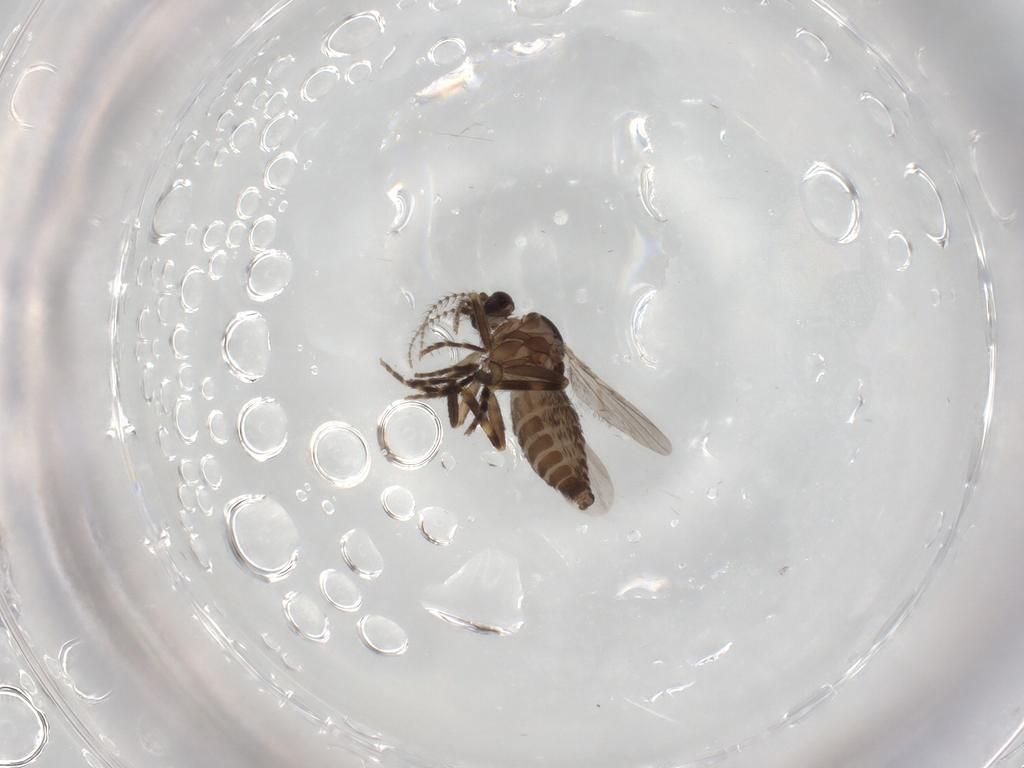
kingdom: Animalia
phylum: Arthropoda
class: Insecta
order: Diptera
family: Ceratopogonidae
